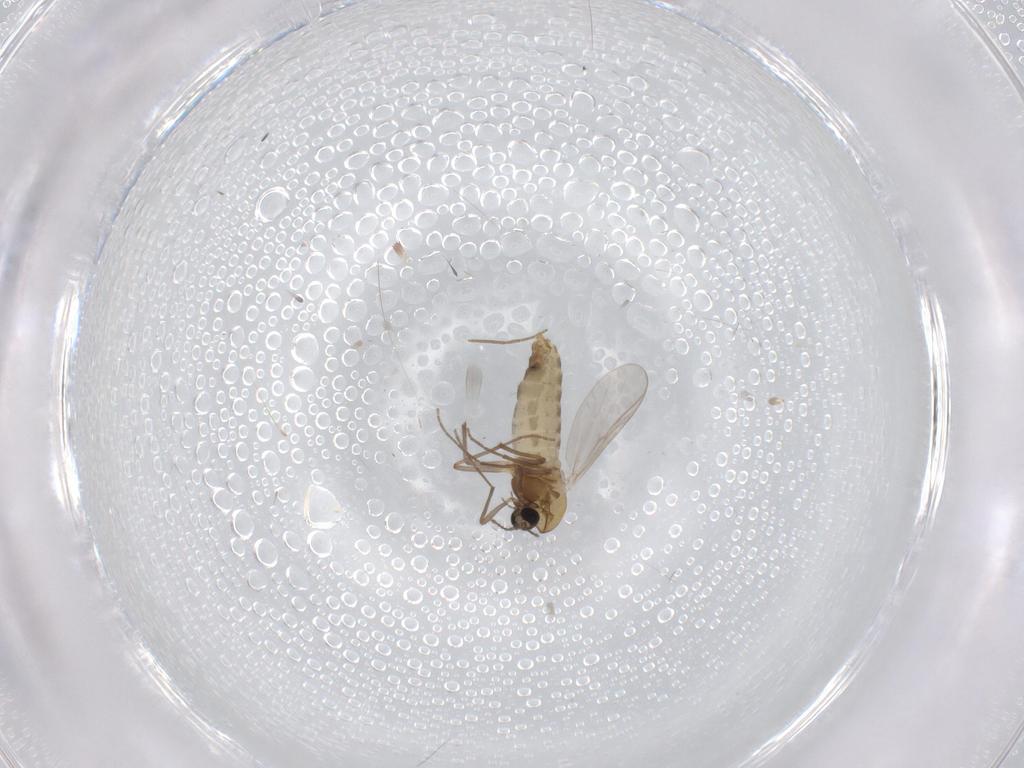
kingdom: Animalia
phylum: Arthropoda
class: Insecta
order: Diptera
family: Chironomidae
